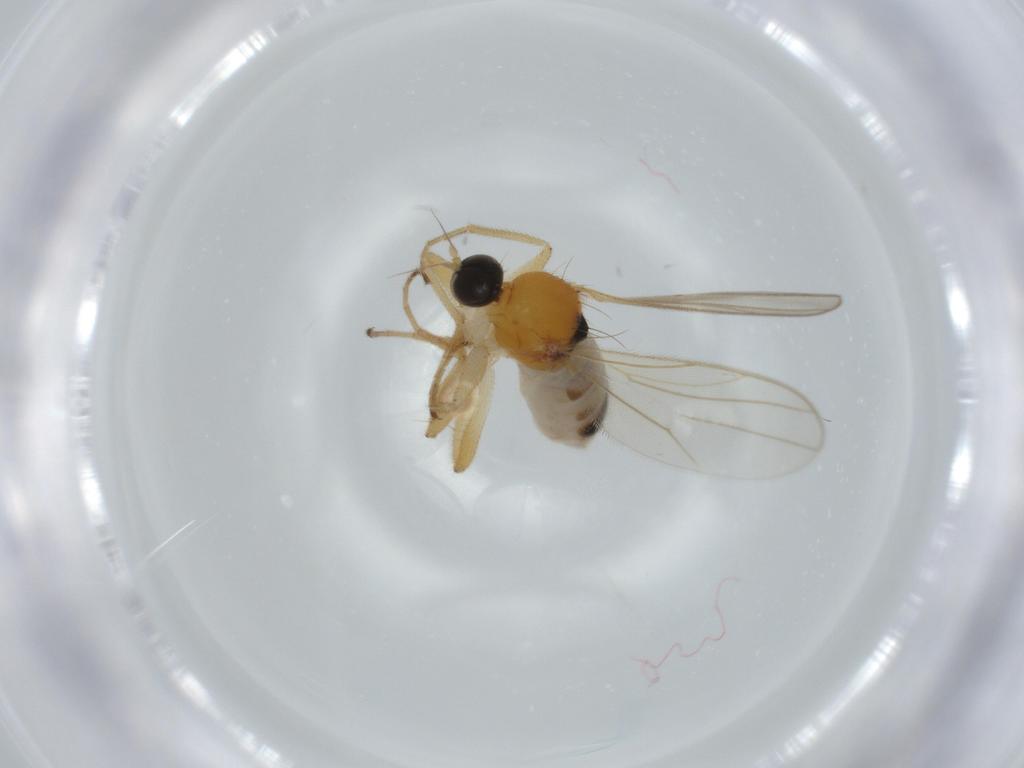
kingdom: Animalia
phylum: Arthropoda
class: Insecta
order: Diptera
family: Hybotidae
